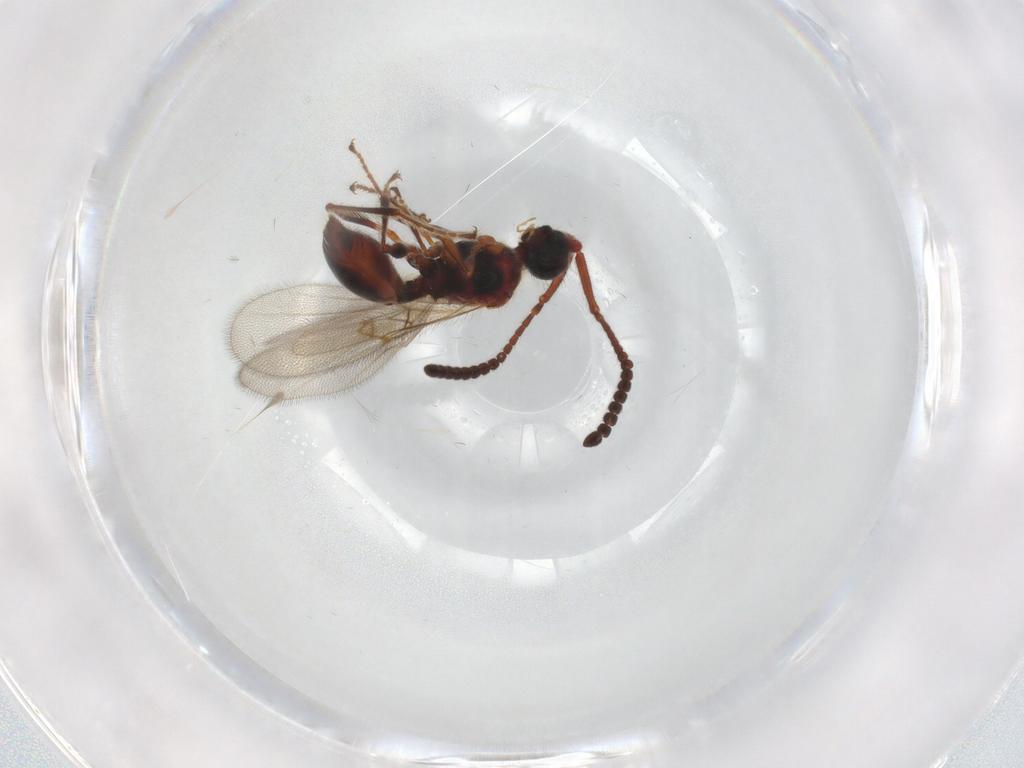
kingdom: Animalia
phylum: Arthropoda
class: Insecta
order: Hymenoptera
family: Diapriidae
